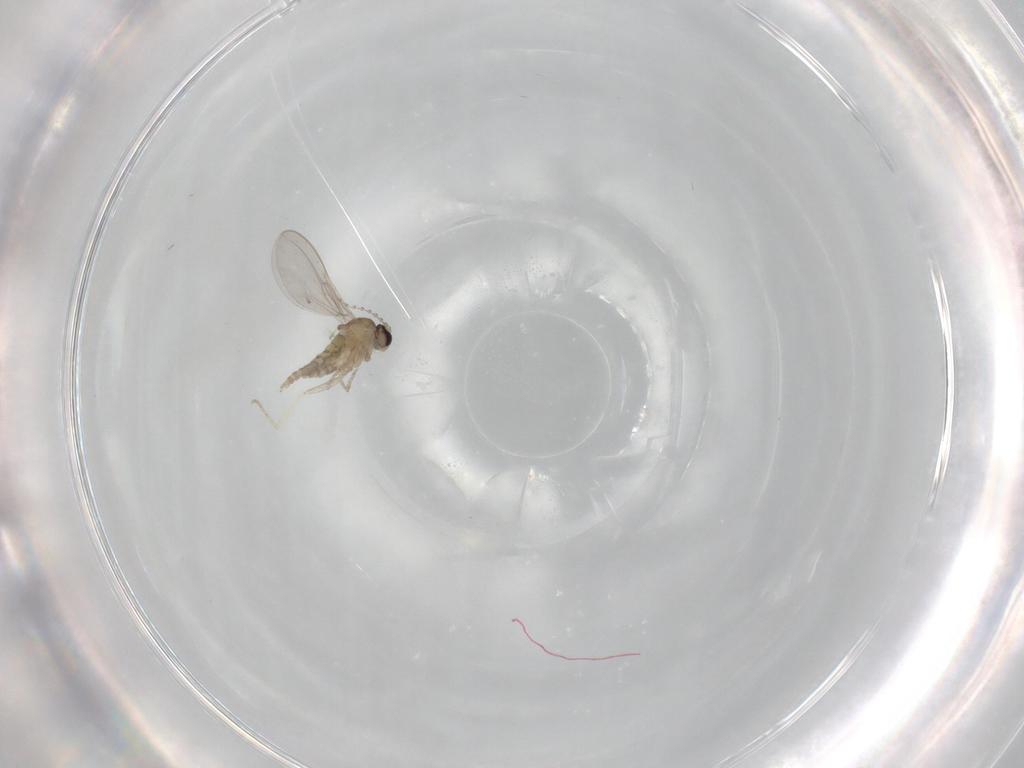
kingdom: Animalia
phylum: Arthropoda
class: Insecta
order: Diptera
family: Cecidomyiidae
